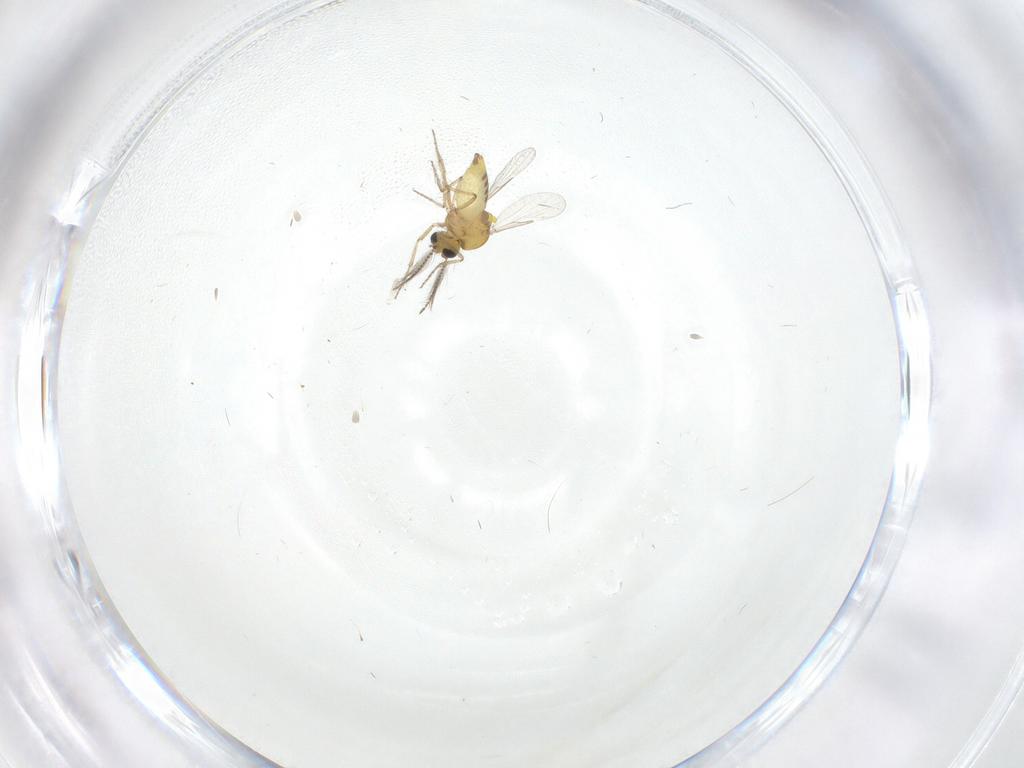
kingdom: Animalia
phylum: Arthropoda
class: Insecta
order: Diptera
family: Ceratopogonidae
